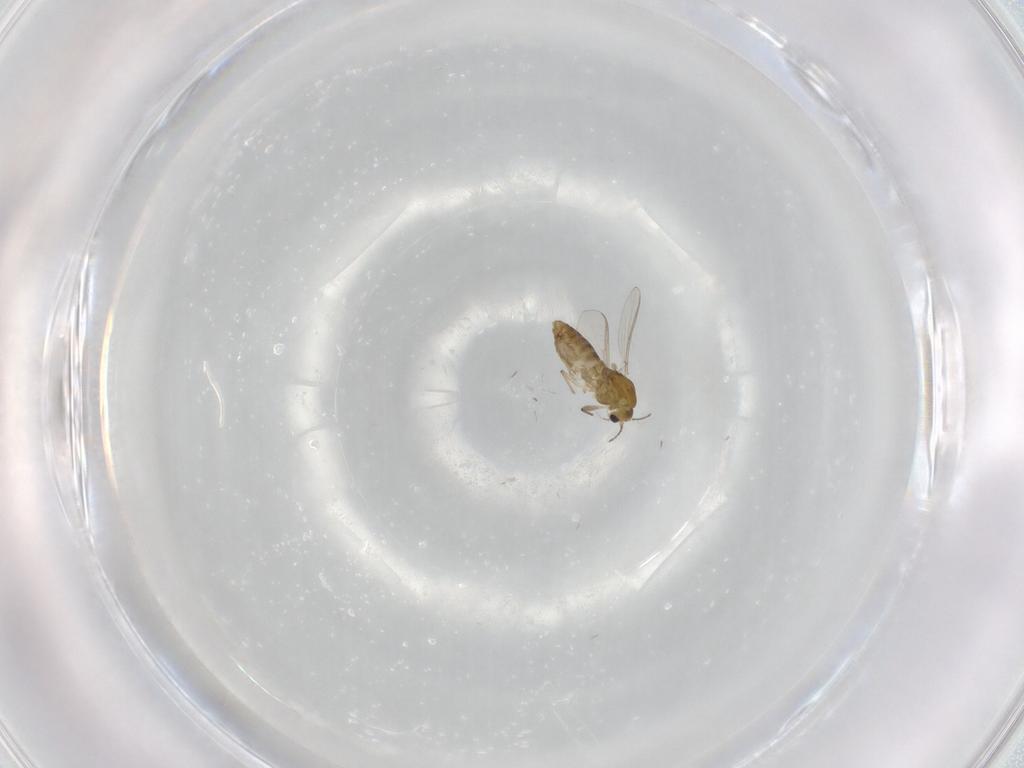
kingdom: Animalia
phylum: Arthropoda
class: Insecta
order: Diptera
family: Chironomidae
